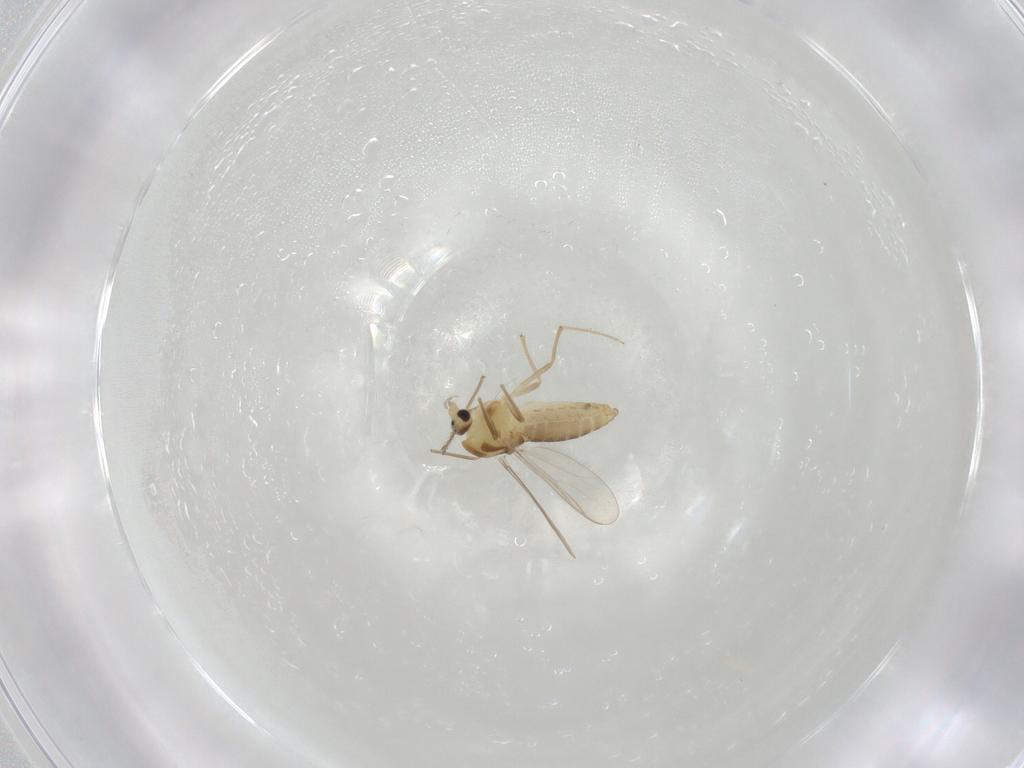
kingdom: Animalia
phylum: Arthropoda
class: Insecta
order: Diptera
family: Chironomidae
